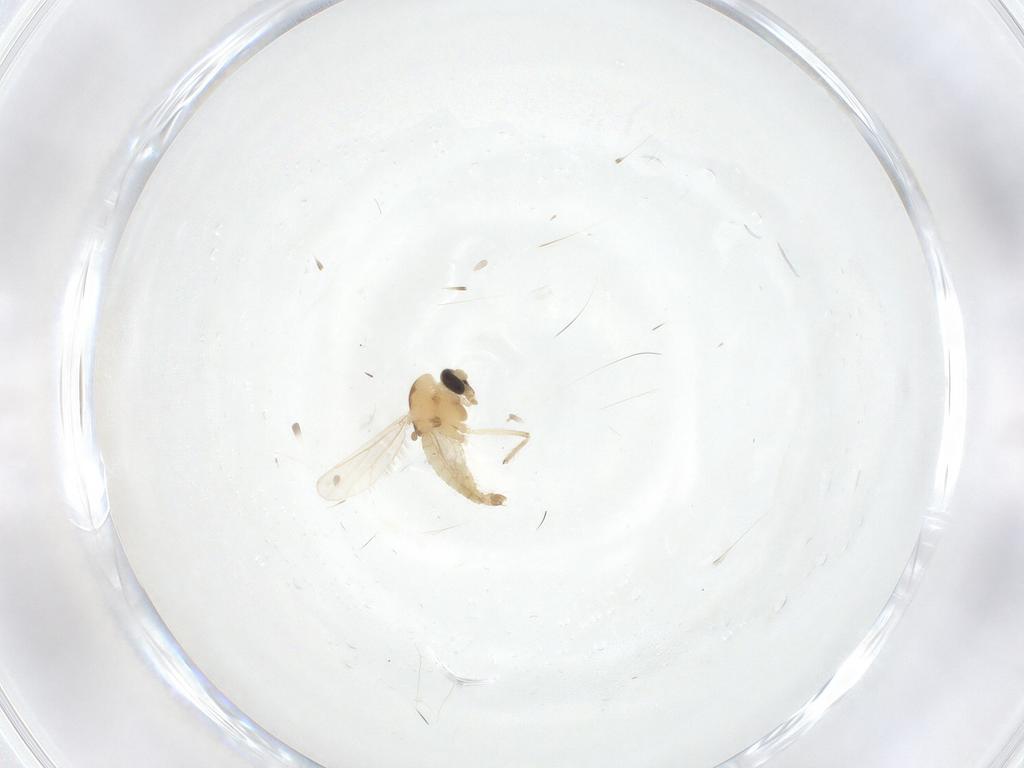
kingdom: Animalia
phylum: Arthropoda
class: Insecta
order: Diptera
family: Chironomidae
